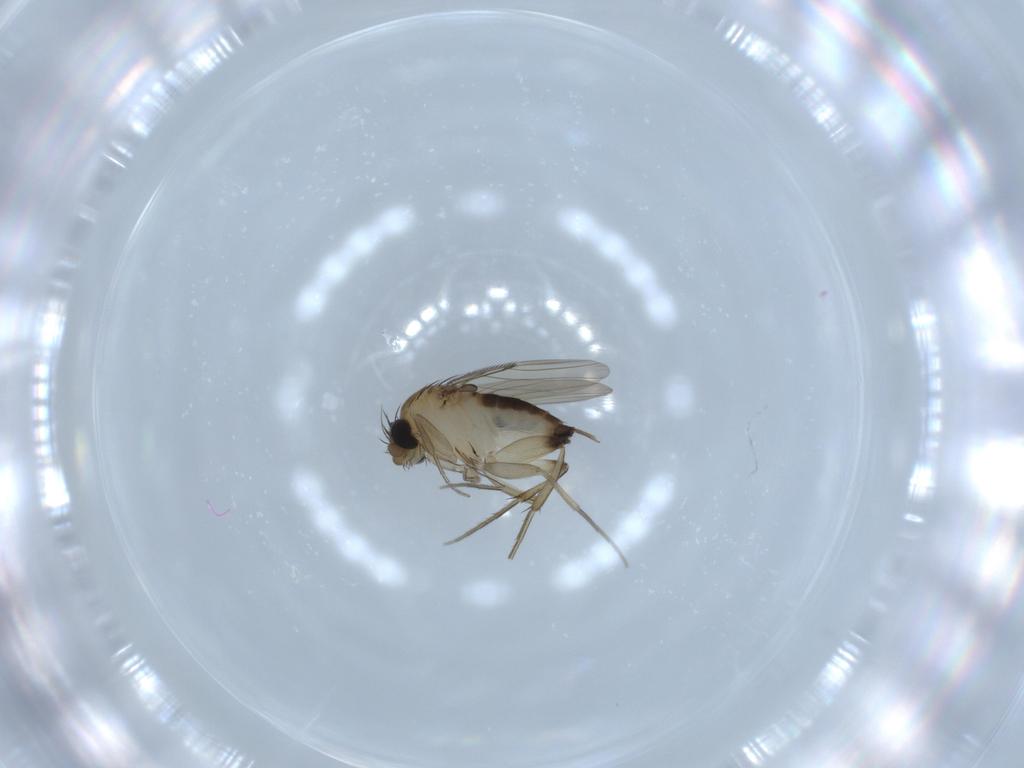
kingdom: Animalia
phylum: Arthropoda
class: Insecta
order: Diptera
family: Phoridae
